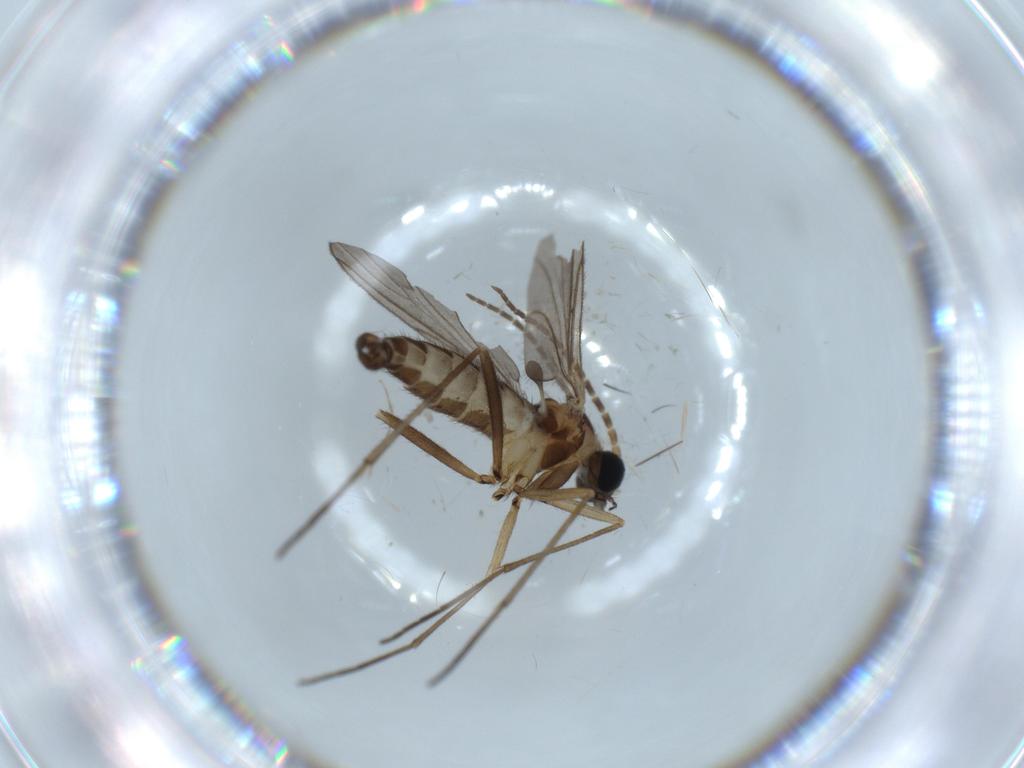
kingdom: Animalia
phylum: Arthropoda
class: Insecta
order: Diptera
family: Sciaridae
